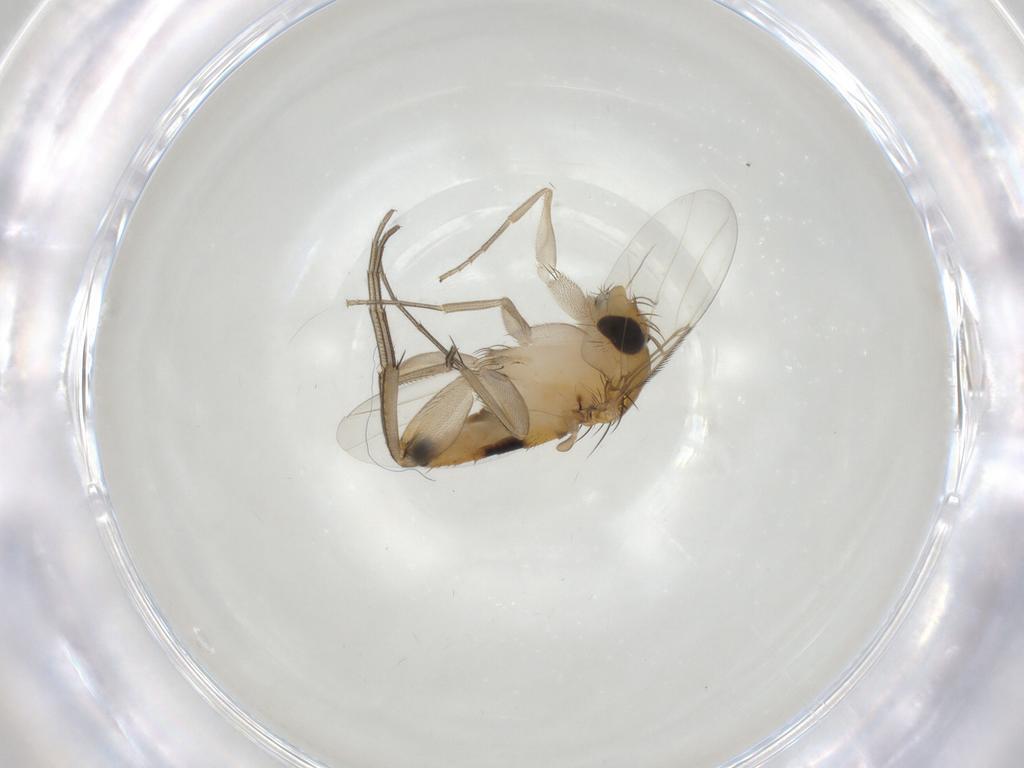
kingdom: Animalia
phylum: Arthropoda
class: Insecta
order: Diptera
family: Phoridae
